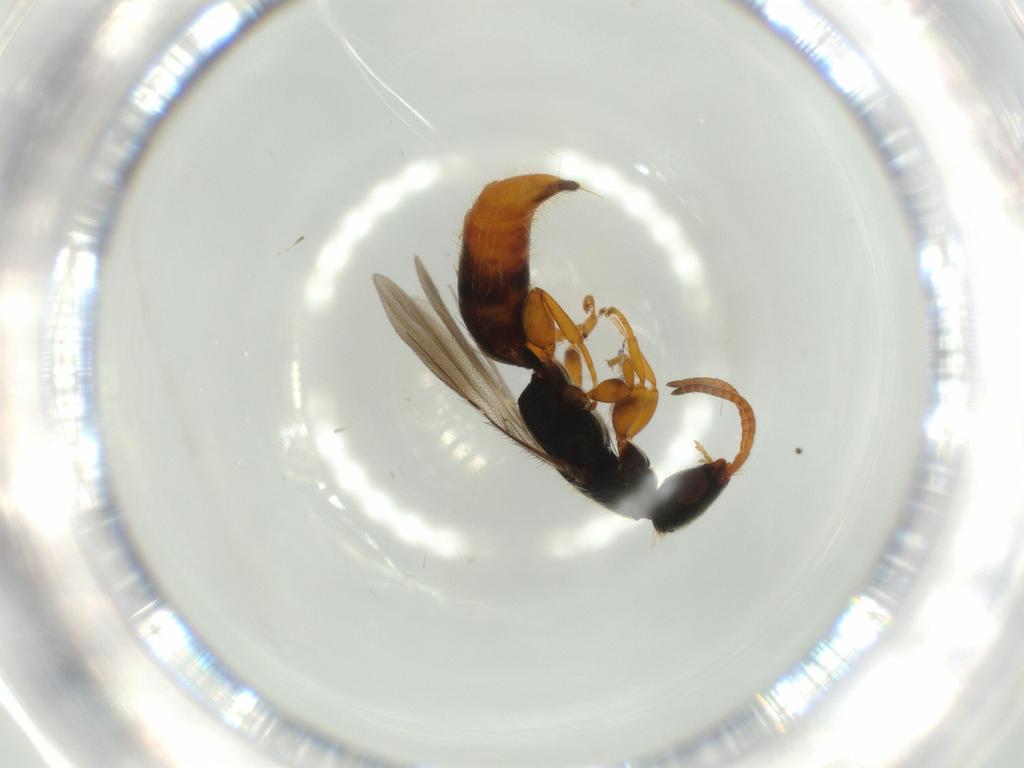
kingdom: Animalia
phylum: Arthropoda
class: Insecta
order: Hymenoptera
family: Bethylidae
